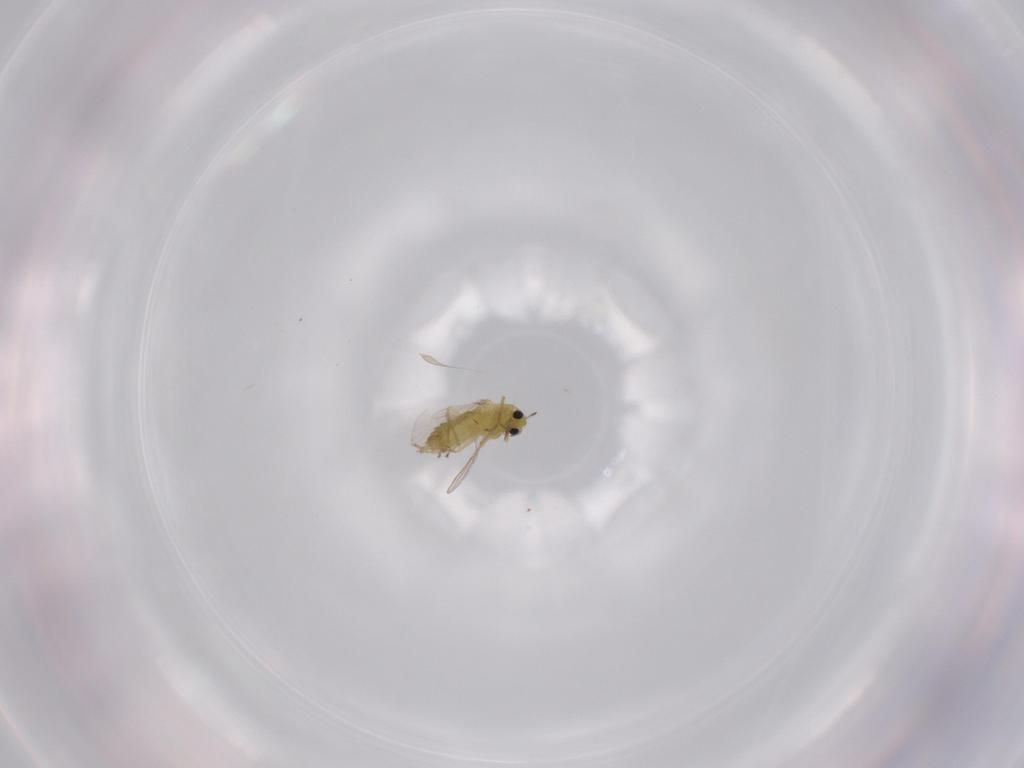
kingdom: Animalia
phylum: Arthropoda
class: Insecta
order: Diptera
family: Chironomidae
